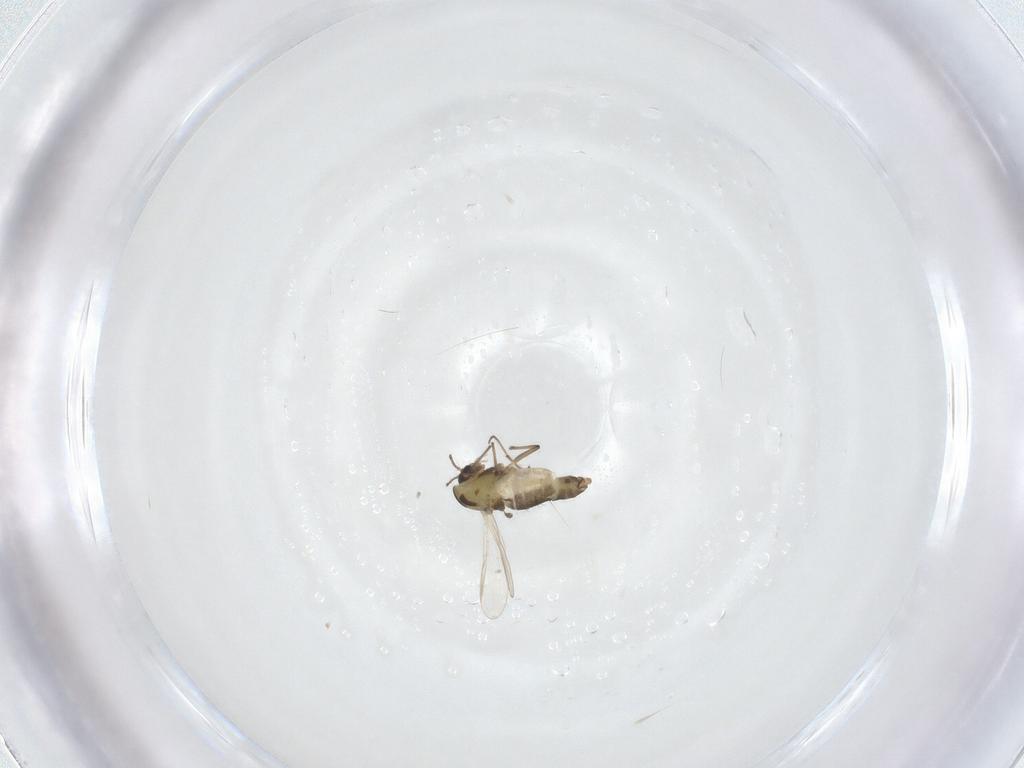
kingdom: Animalia
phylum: Arthropoda
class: Insecta
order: Diptera
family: Chironomidae
